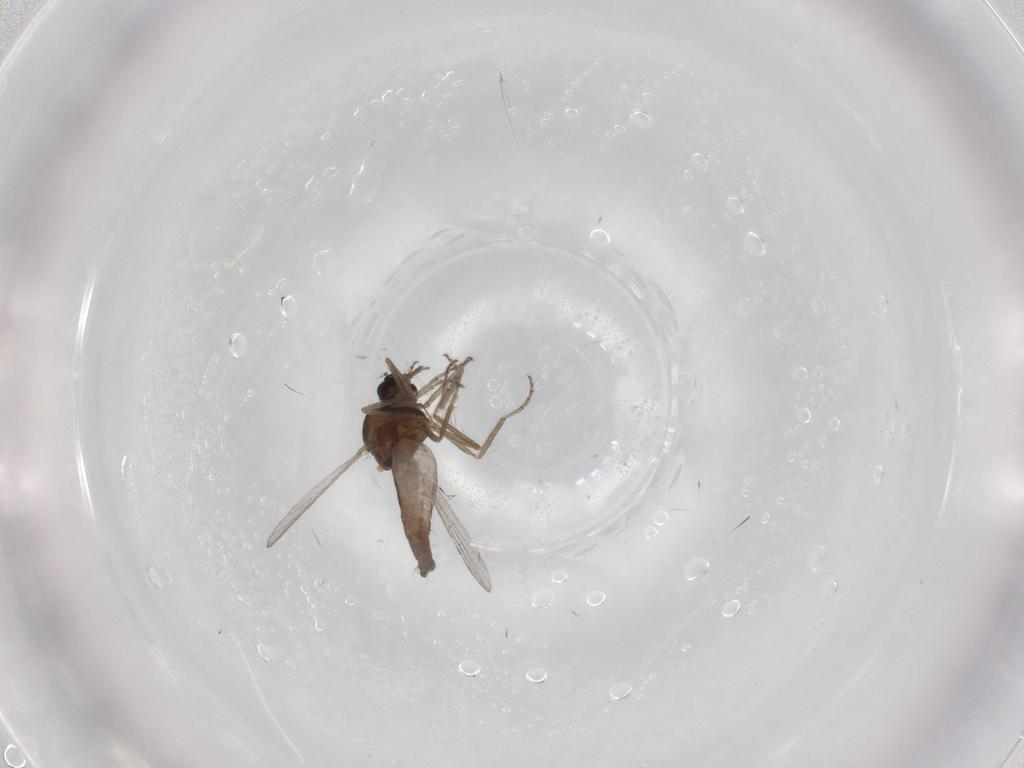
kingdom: Animalia
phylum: Arthropoda
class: Insecta
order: Diptera
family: Ceratopogonidae
